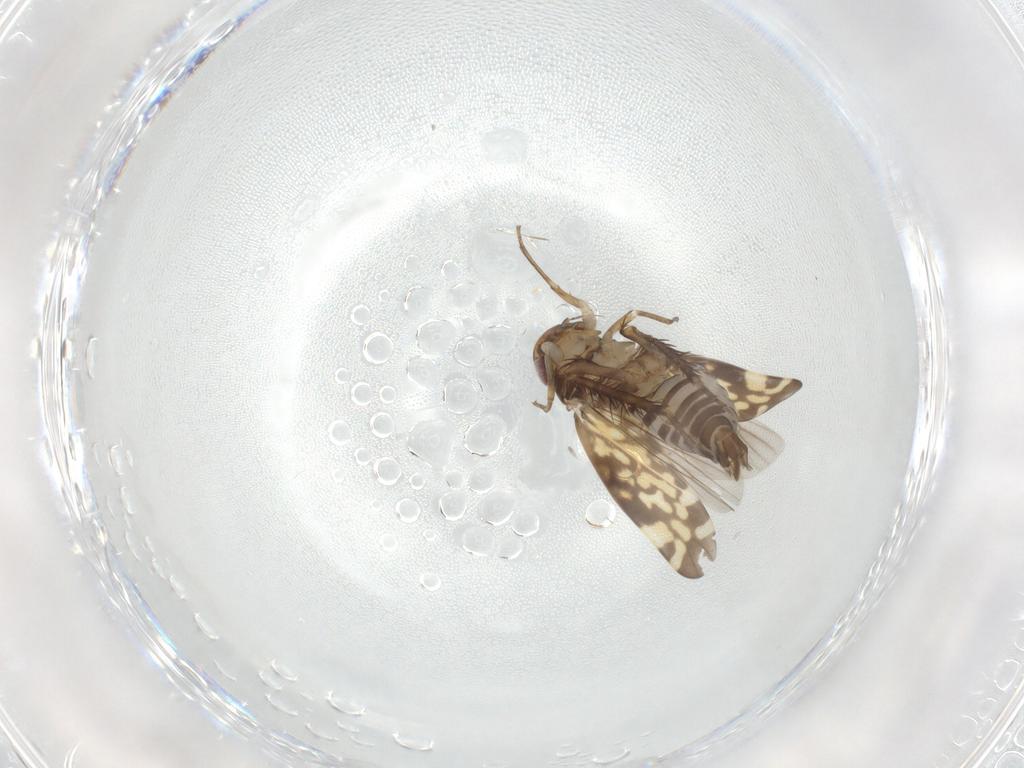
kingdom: Animalia
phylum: Arthropoda
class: Insecta
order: Hemiptera
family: Cicadellidae
